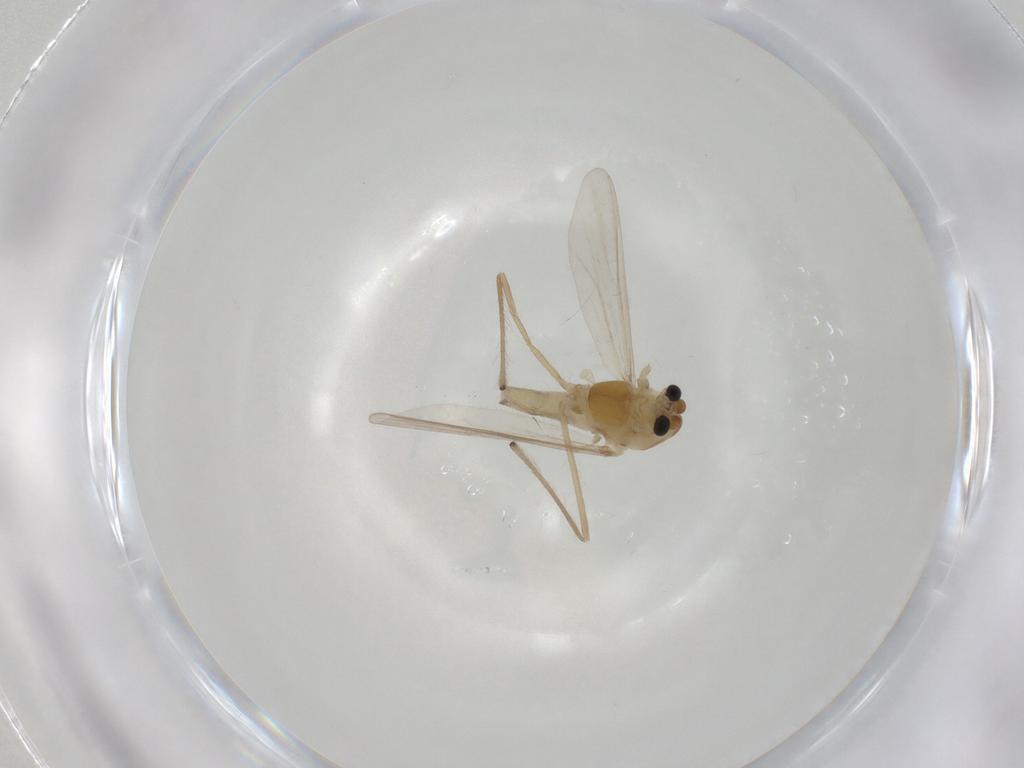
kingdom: Animalia
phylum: Arthropoda
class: Insecta
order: Diptera
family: Chironomidae
